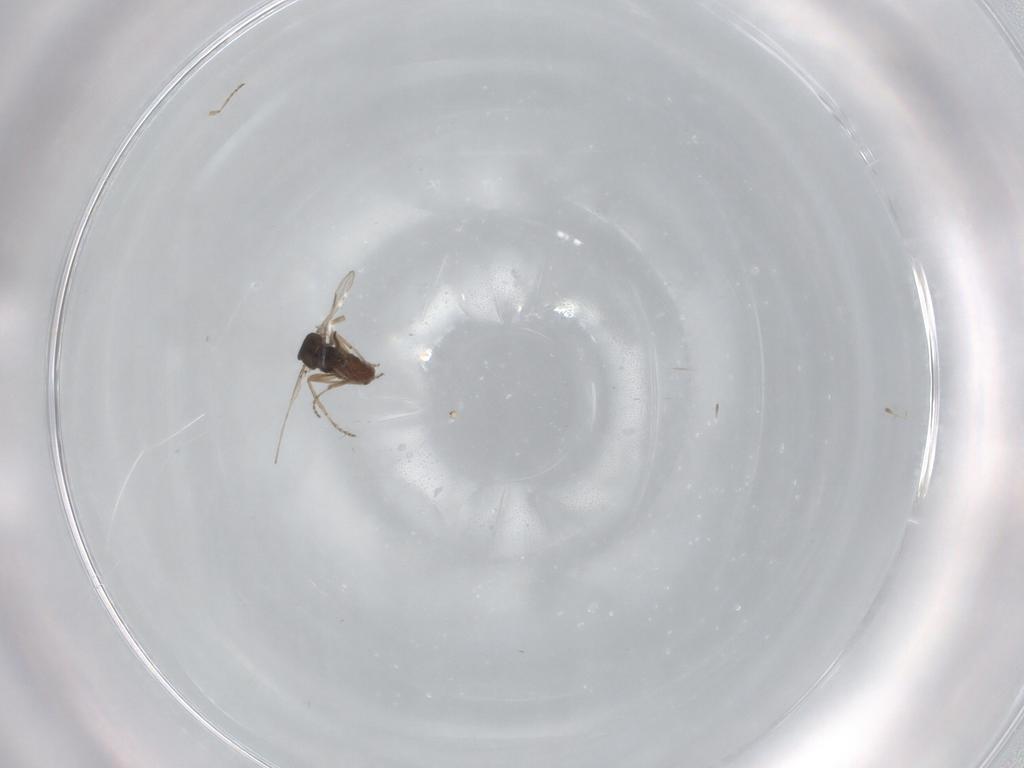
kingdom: Animalia
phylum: Arthropoda
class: Insecta
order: Diptera
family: Ceratopogonidae
